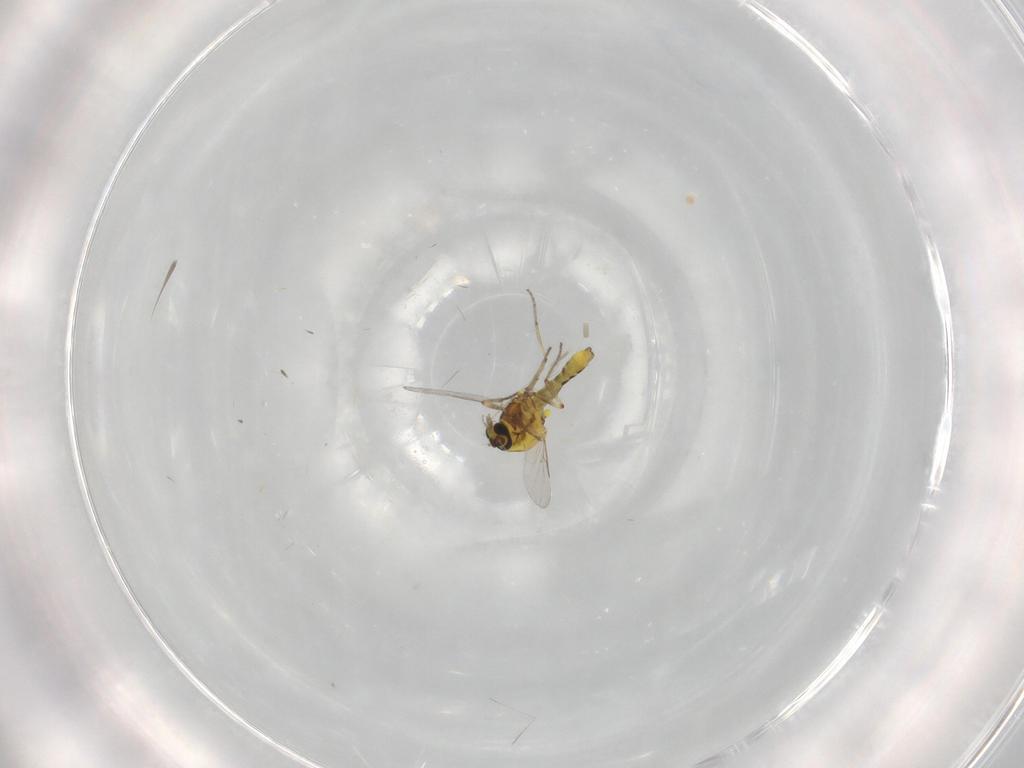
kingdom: Animalia
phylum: Arthropoda
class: Insecta
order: Diptera
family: Ceratopogonidae
